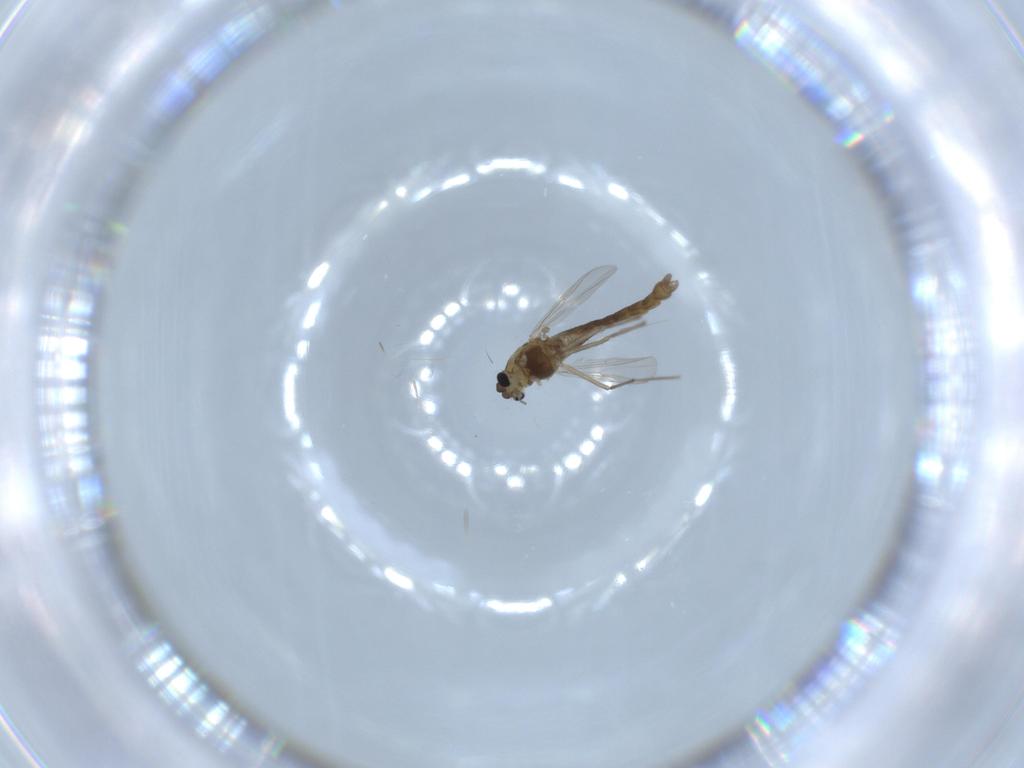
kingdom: Animalia
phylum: Arthropoda
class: Insecta
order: Diptera
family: Chironomidae
